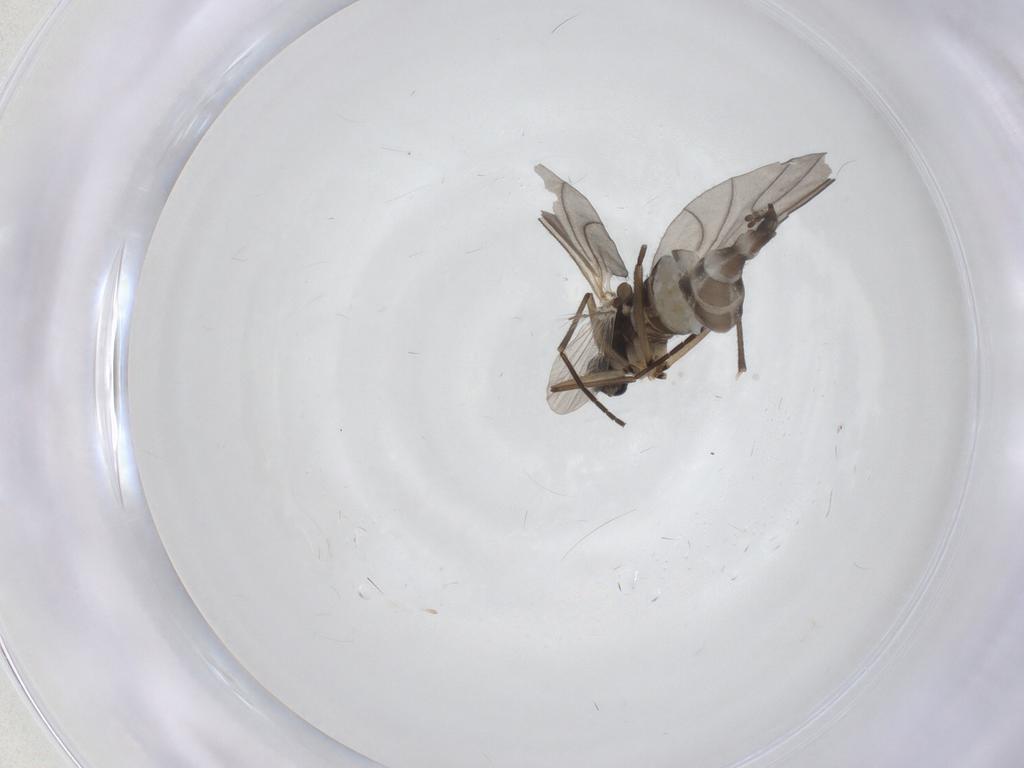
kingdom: Animalia
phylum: Arthropoda
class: Insecta
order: Diptera
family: Sciaridae
